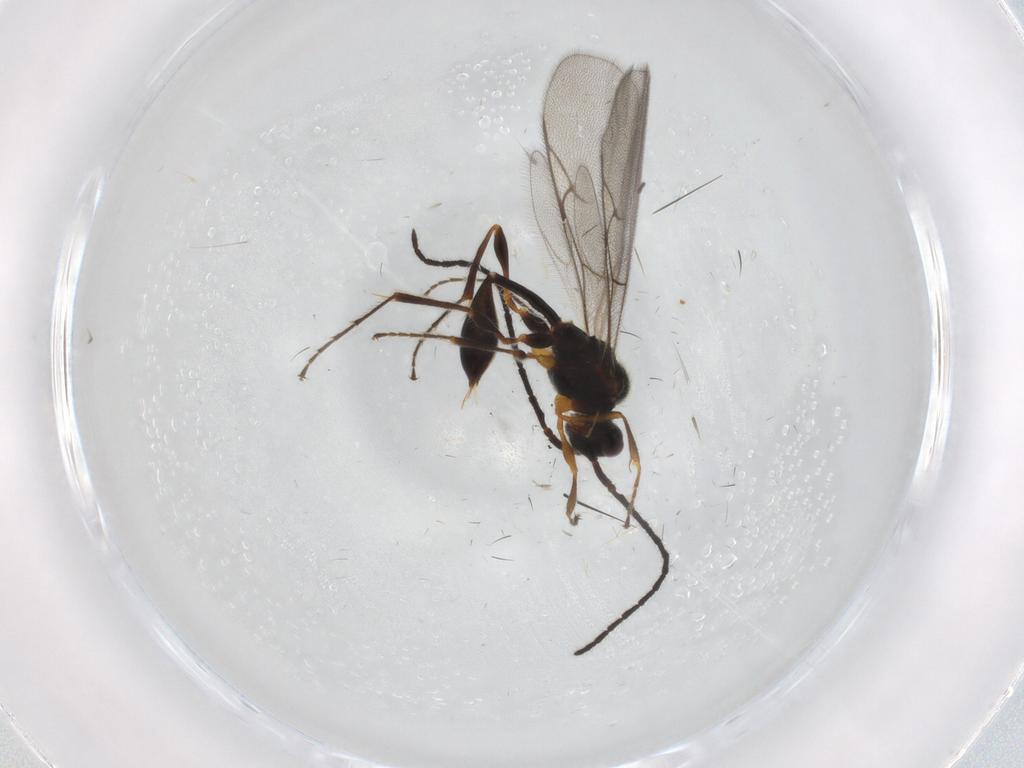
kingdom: Animalia
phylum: Arthropoda
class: Insecta
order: Hymenoptera
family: Diapriidae
